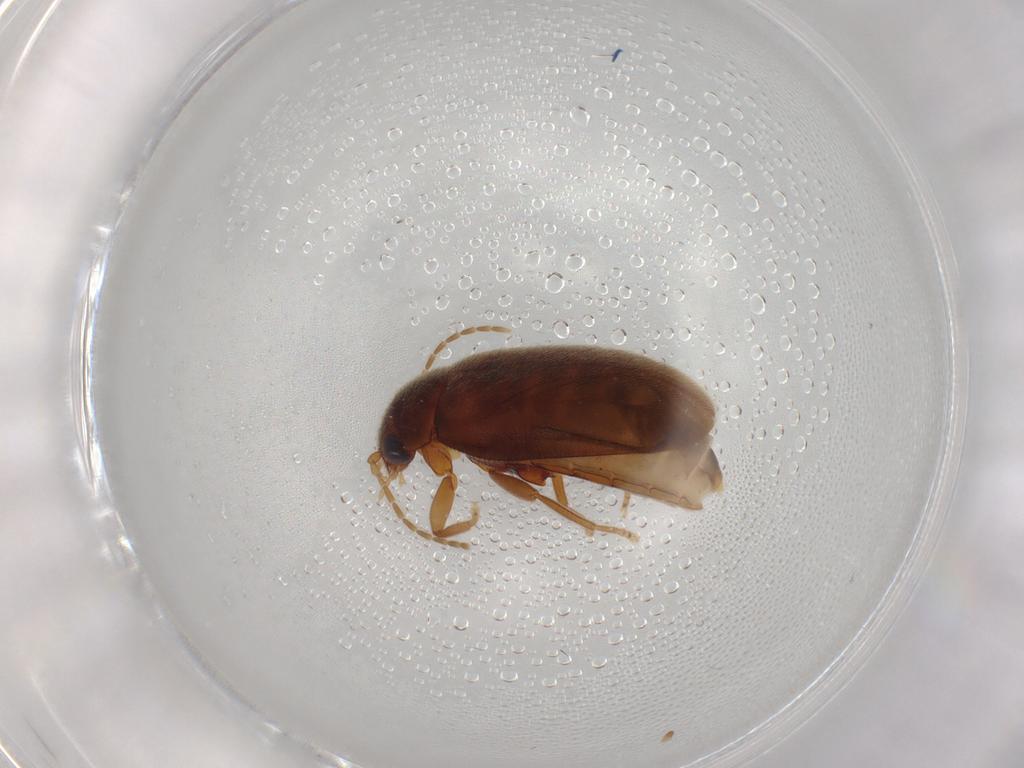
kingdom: Animalia
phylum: Arthropoda
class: Insecta
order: Coleoptera
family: Scirtidae
